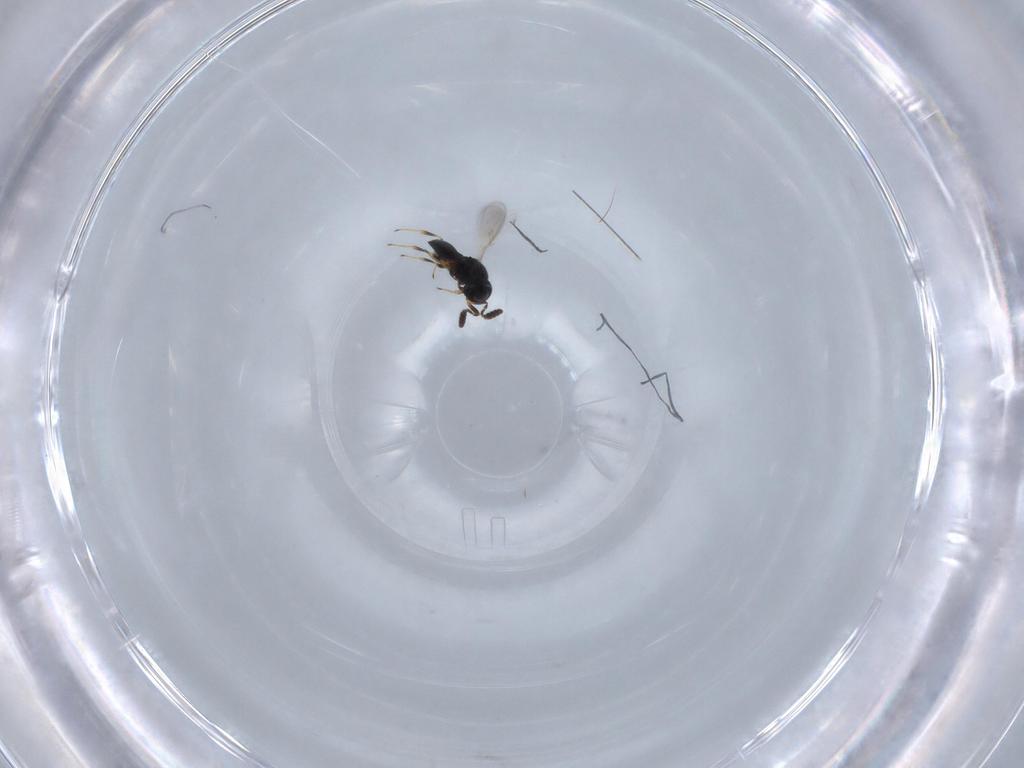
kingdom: Animalia
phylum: Arthropoda
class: Insecta
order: Hymenoptera
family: Scelionidae
